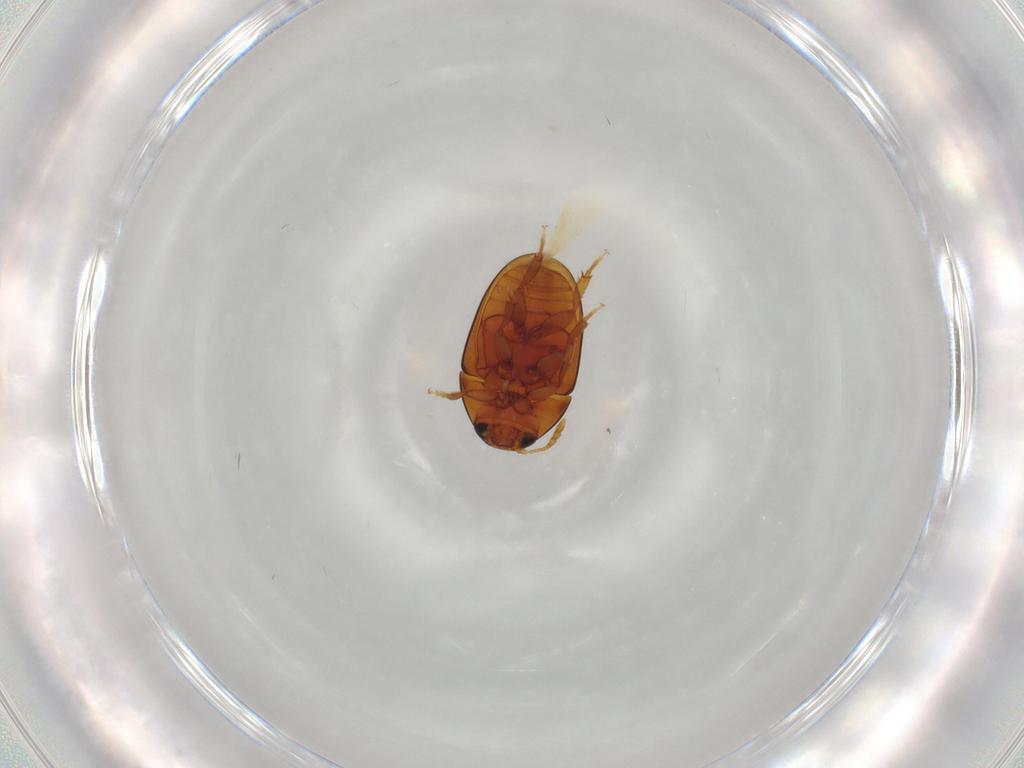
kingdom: Animalia
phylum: Arthropoda
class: Insecta
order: Coleoptera
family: Phalacridae
